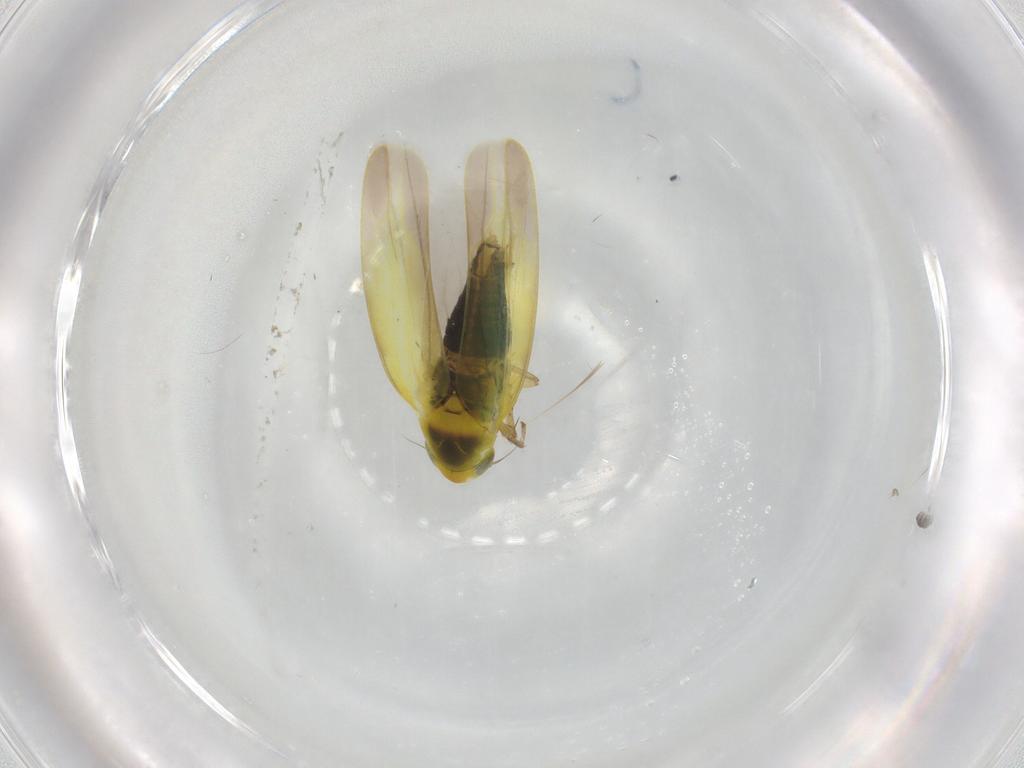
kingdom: Animalia
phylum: Arthropoda
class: Insecta
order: Hemiptera
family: Cicadellidae
